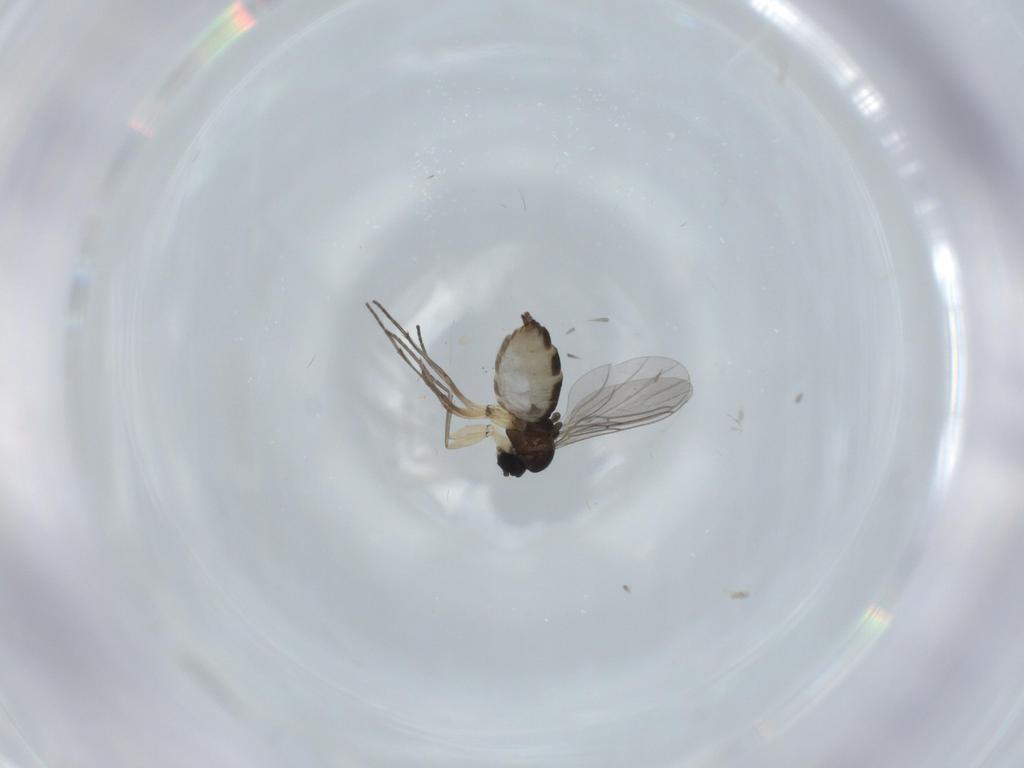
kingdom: Animalia
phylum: Arthropoda
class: Insecta
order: Diptera
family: Sciaridae
